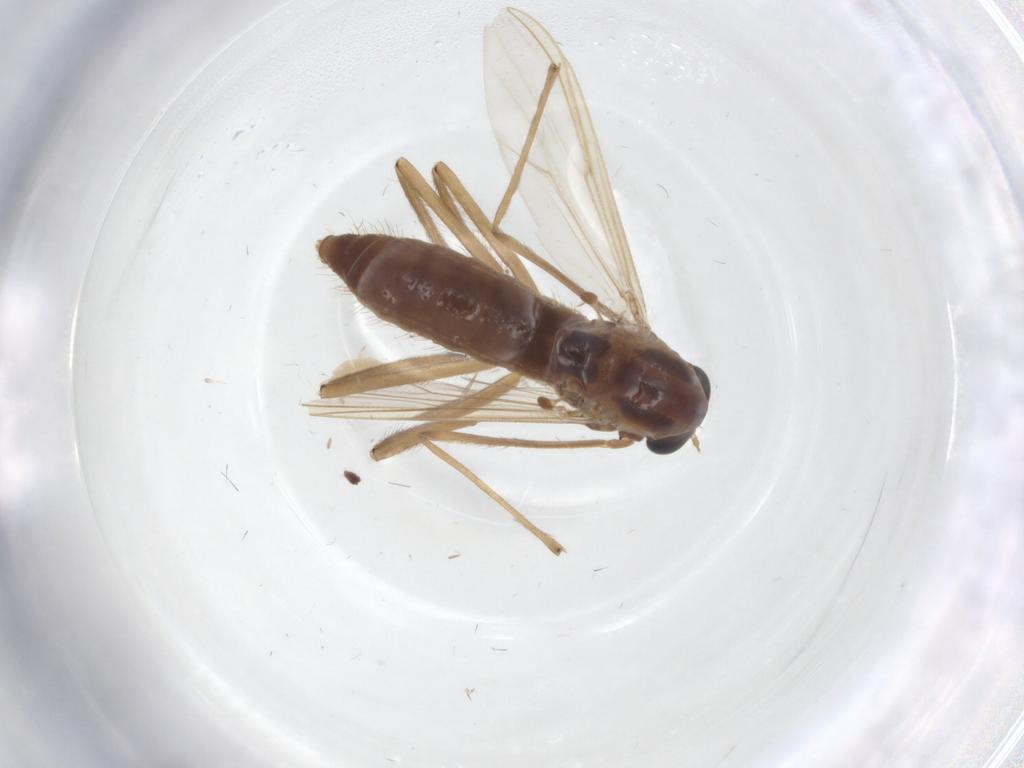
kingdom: Animalia
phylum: Arthropoda
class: Insecta
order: Diptera
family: Chironomidae
